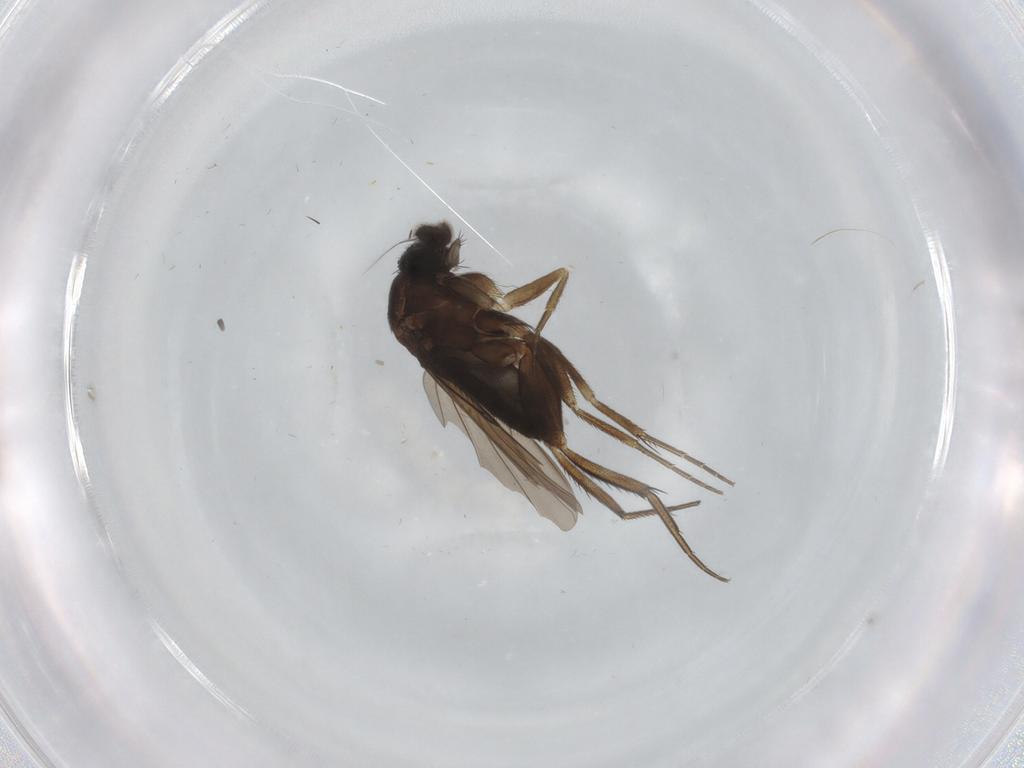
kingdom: Animalia
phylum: Arthropoda
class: Insecta
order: Diptera
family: Phoridae
